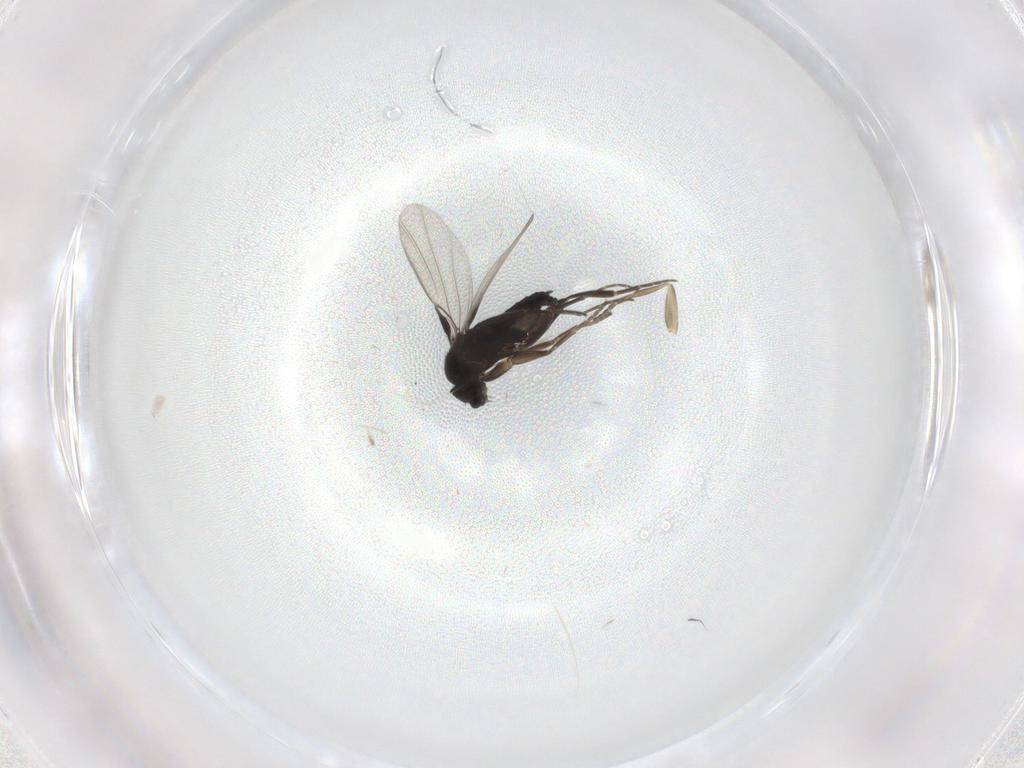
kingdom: Animalia
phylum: Arthropoda
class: Insecta
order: Diptera
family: Phoridae
